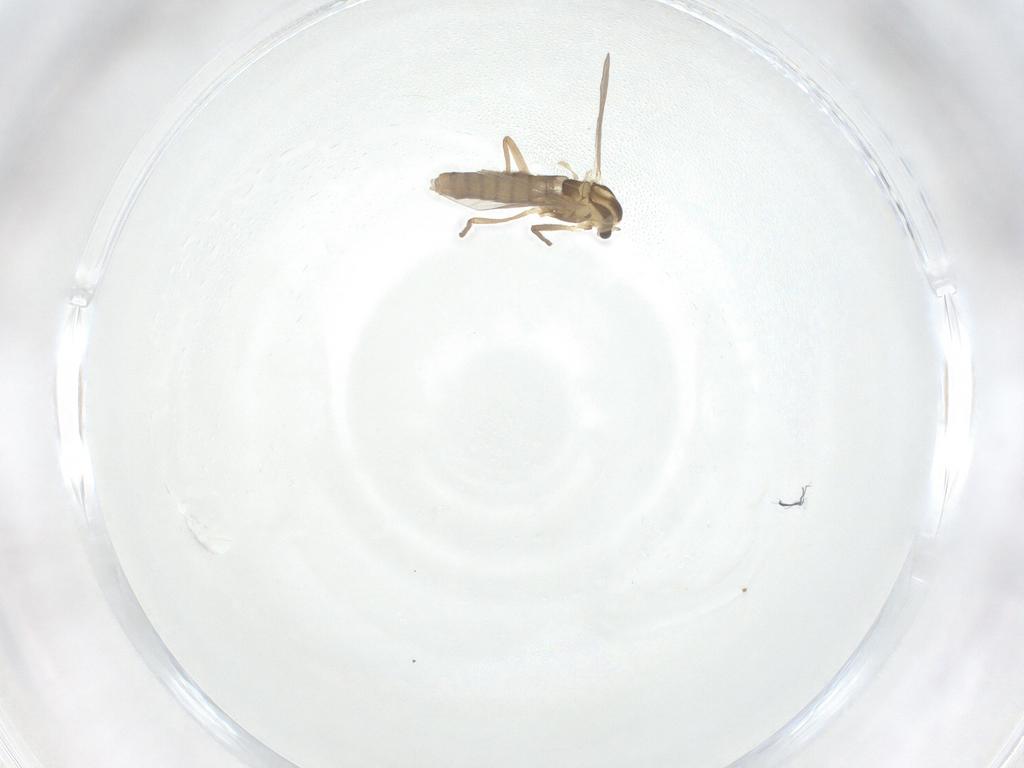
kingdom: Animalia
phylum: Arthropoda
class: Insecta
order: Diptera
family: Chironomidae
